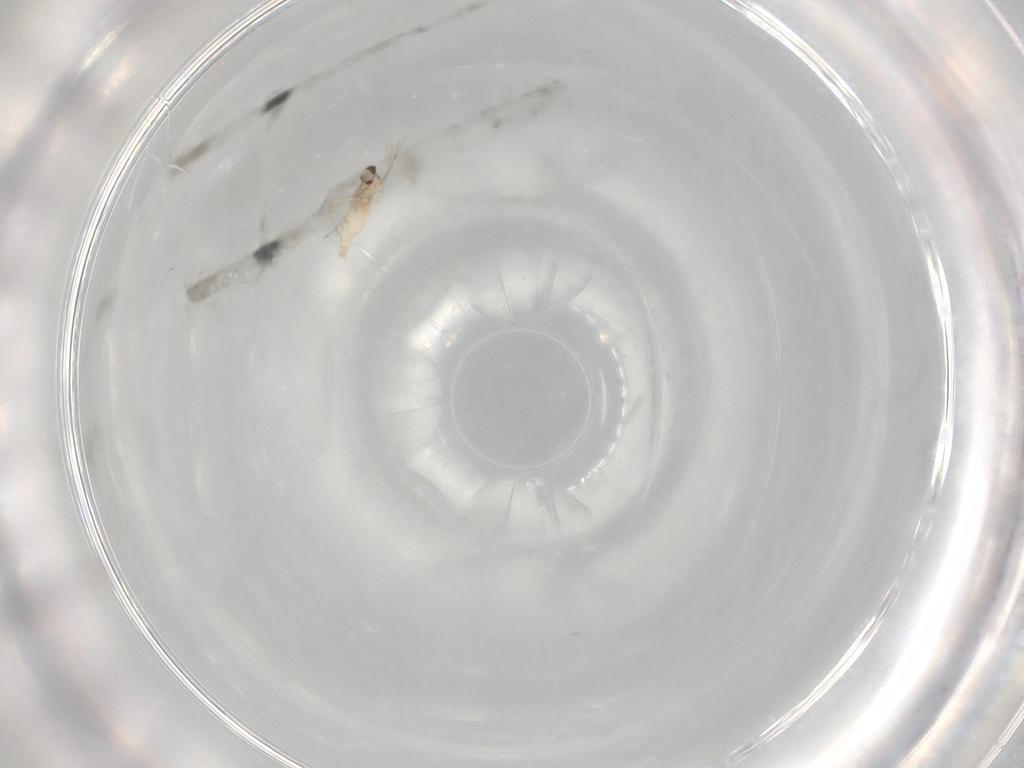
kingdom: Animalia
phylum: Arthropoda
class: Insecta
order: Diptera
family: Cecidomyiidae
